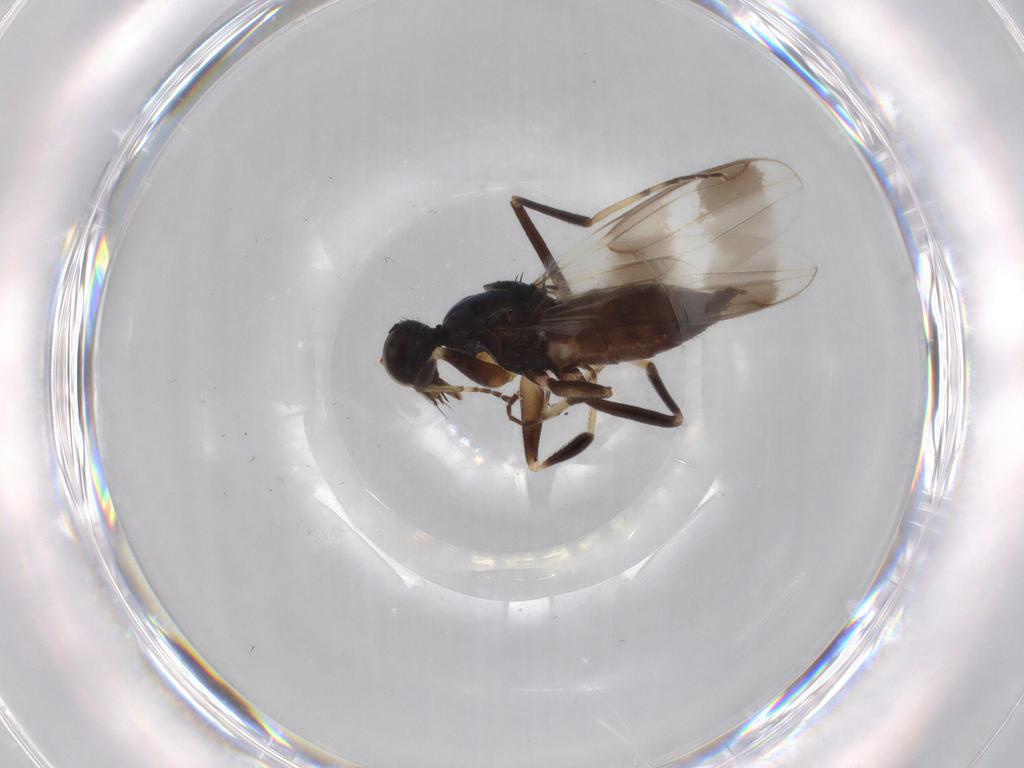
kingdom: Animalia
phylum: Arthropoda
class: Insecta
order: Diptera
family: Hybotidae
